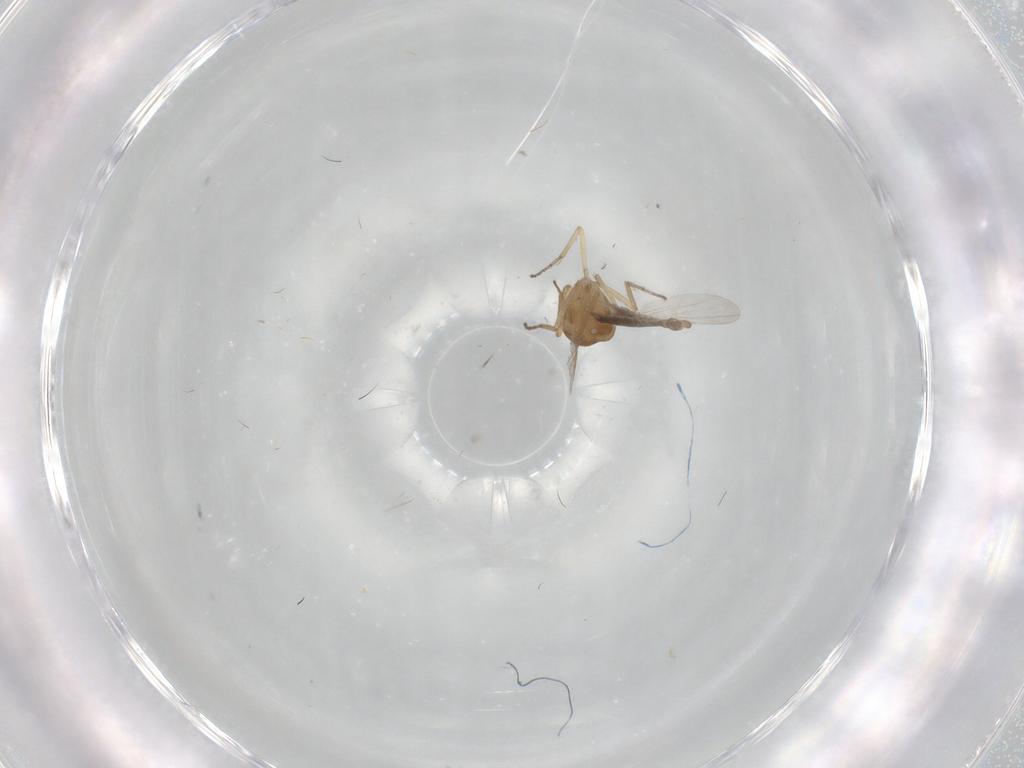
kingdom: Animalia
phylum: Arthropoda
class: Insecta
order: Diptera
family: Ceratopogonidae
